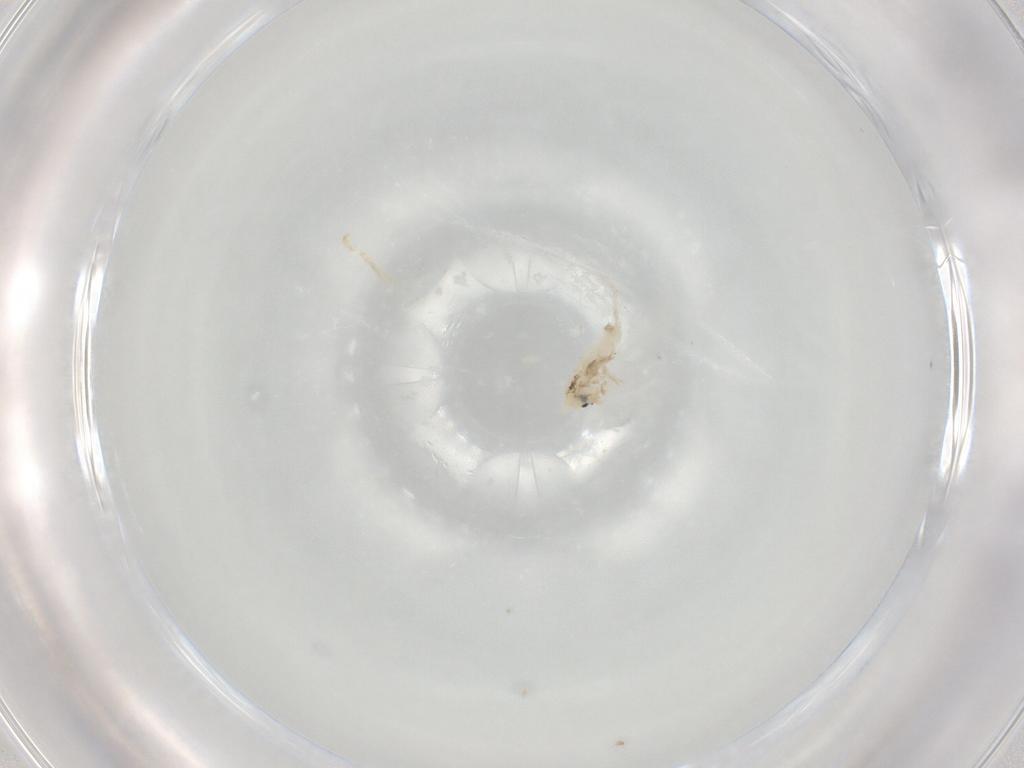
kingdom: Animalia
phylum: Arthropoda
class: Collembola
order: Entomobryomorpha
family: Entomobryidae
